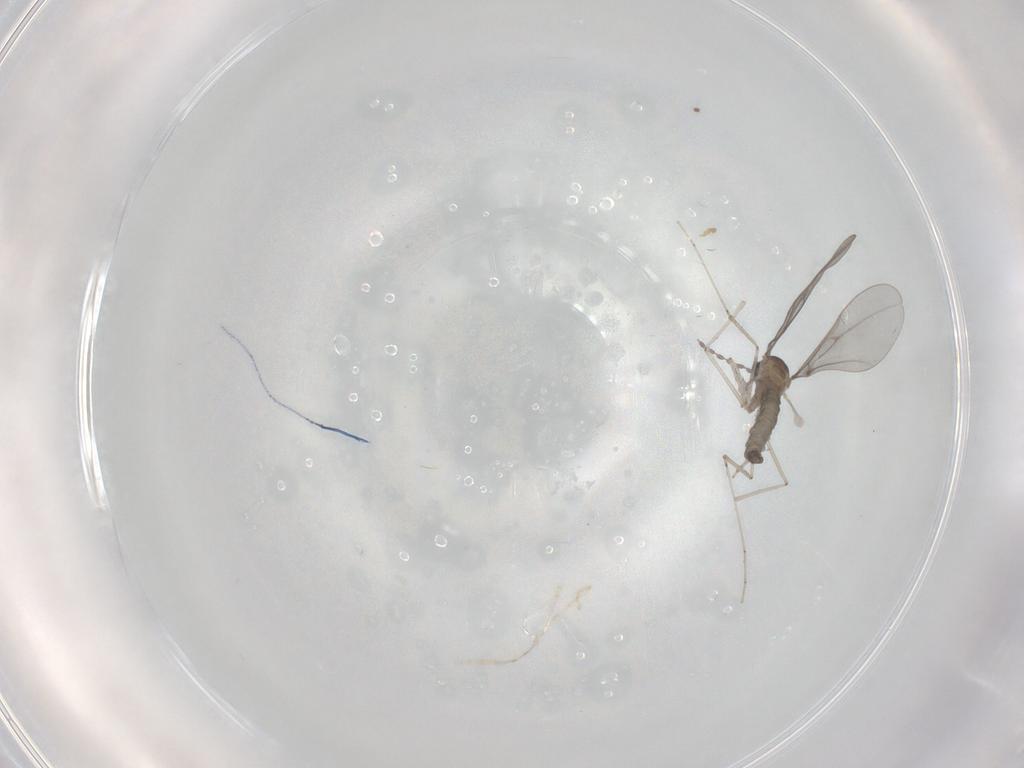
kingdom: Animalia
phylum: Arthropoda
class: Insecta
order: Diptera
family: Cecidomyiidae
